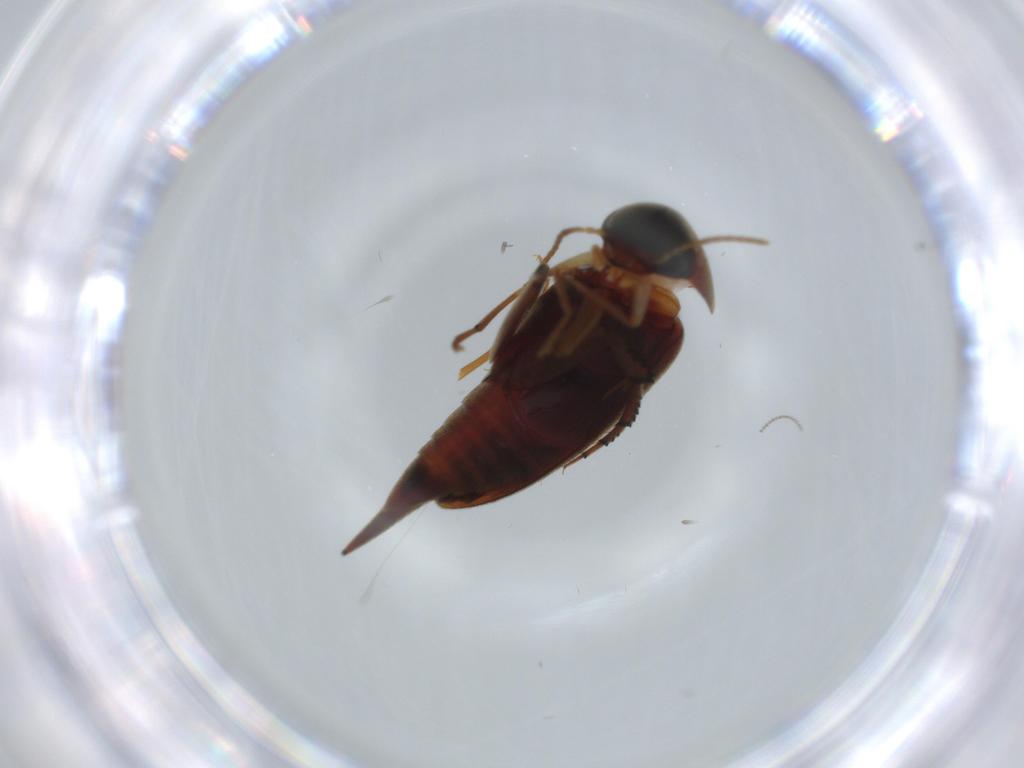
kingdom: Animalia
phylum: Arthropoda
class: Insecta
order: Coleoptera
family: Mordellidae
